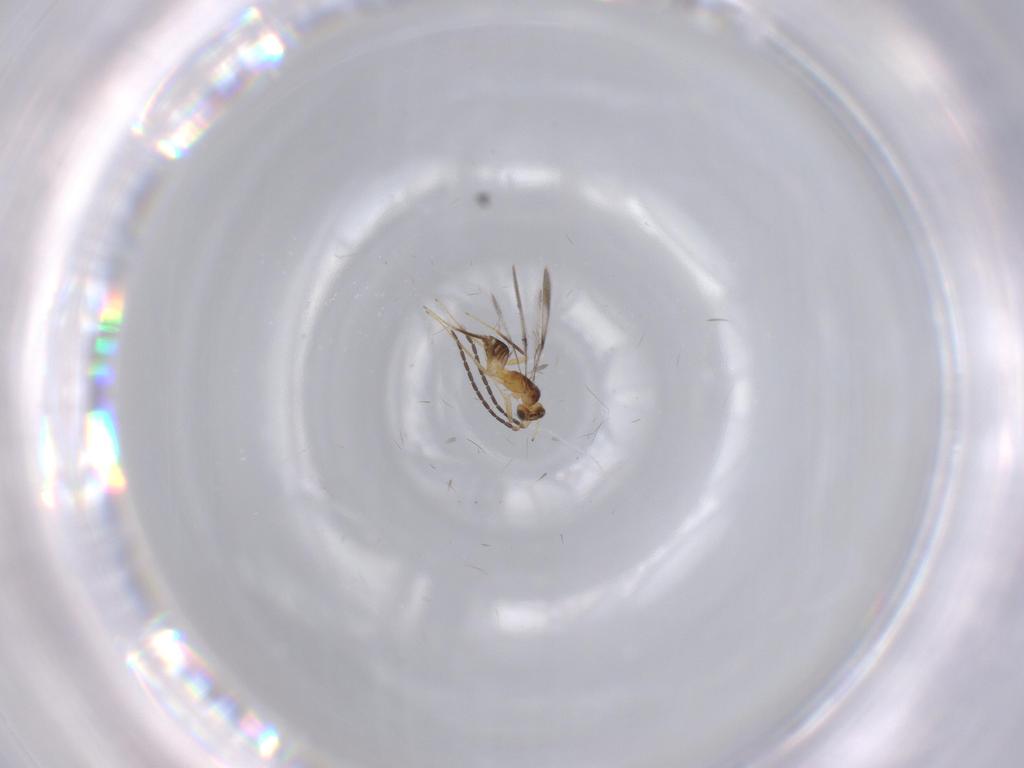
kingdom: Animalia
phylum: Arthropoda
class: Insecta
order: Hymenoptera
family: Mymaridae
